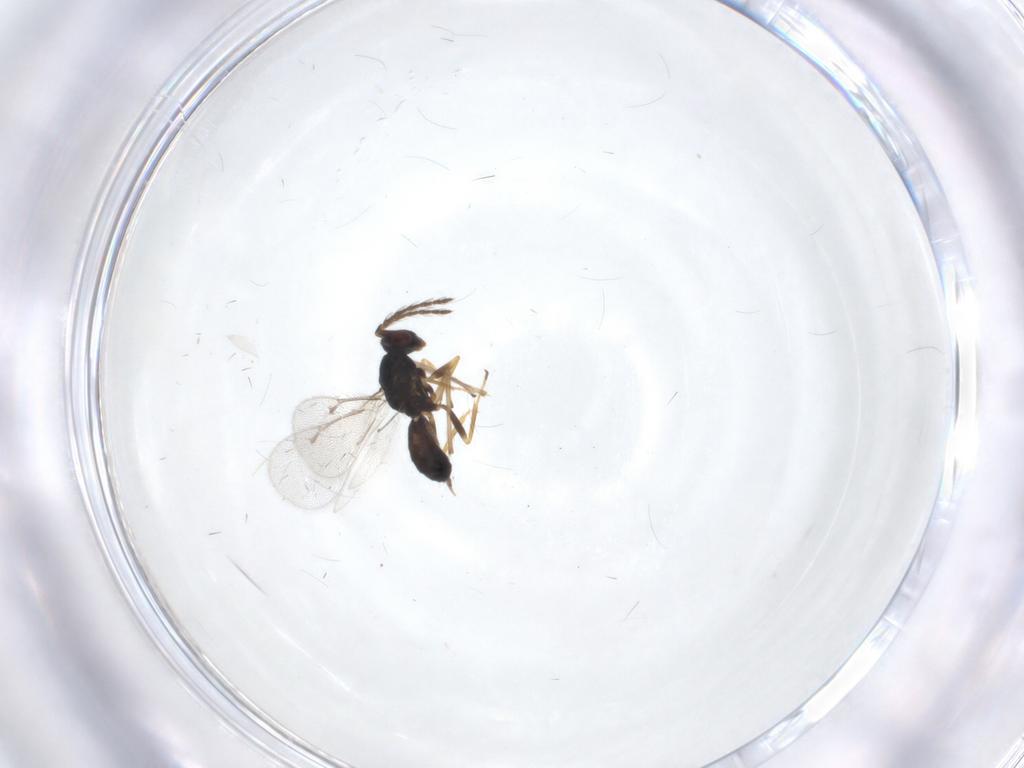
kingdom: Animalia
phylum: Arthropoda
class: Insecta
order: Hymenoptera
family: Eulophidae
